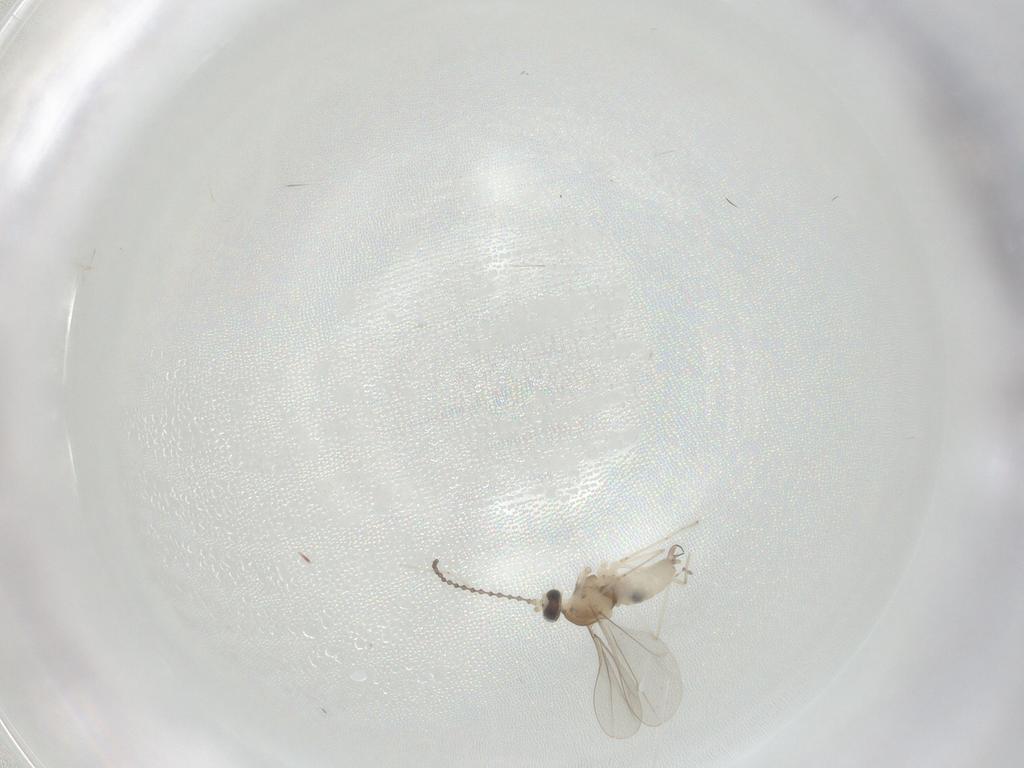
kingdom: Animalia
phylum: Arthropoda
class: Insecta
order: Diptera
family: Cecidomyiidae
